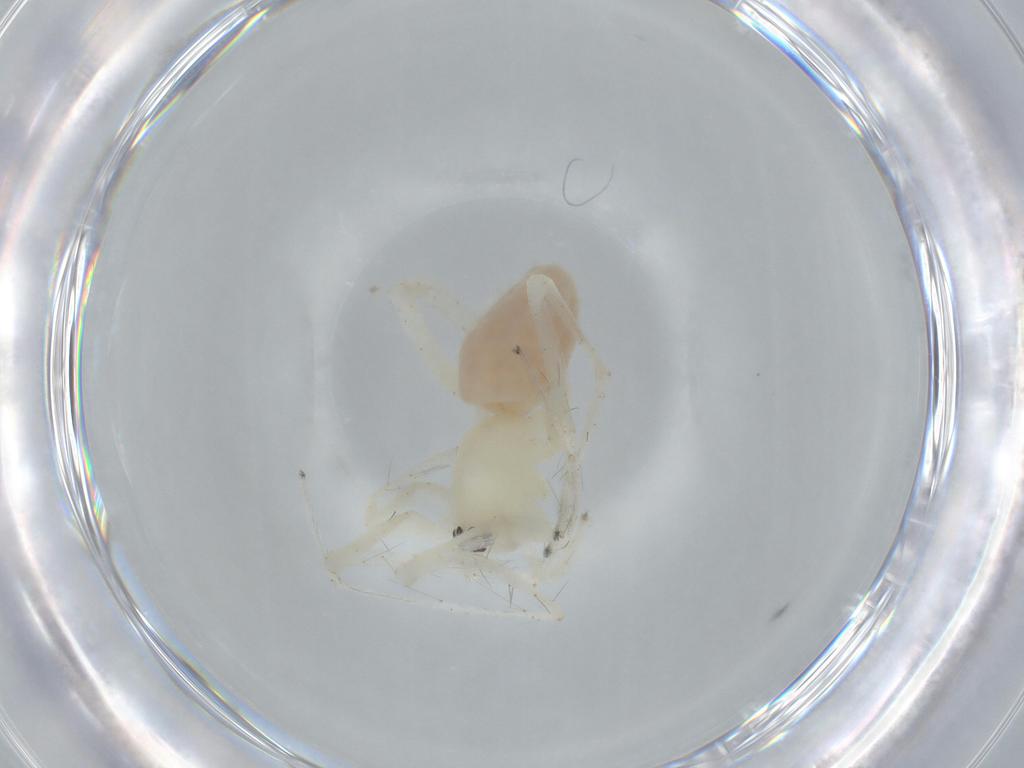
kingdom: Animalia
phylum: Arthropoda
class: Arachnida
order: Araneae
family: Anyphaenidae
